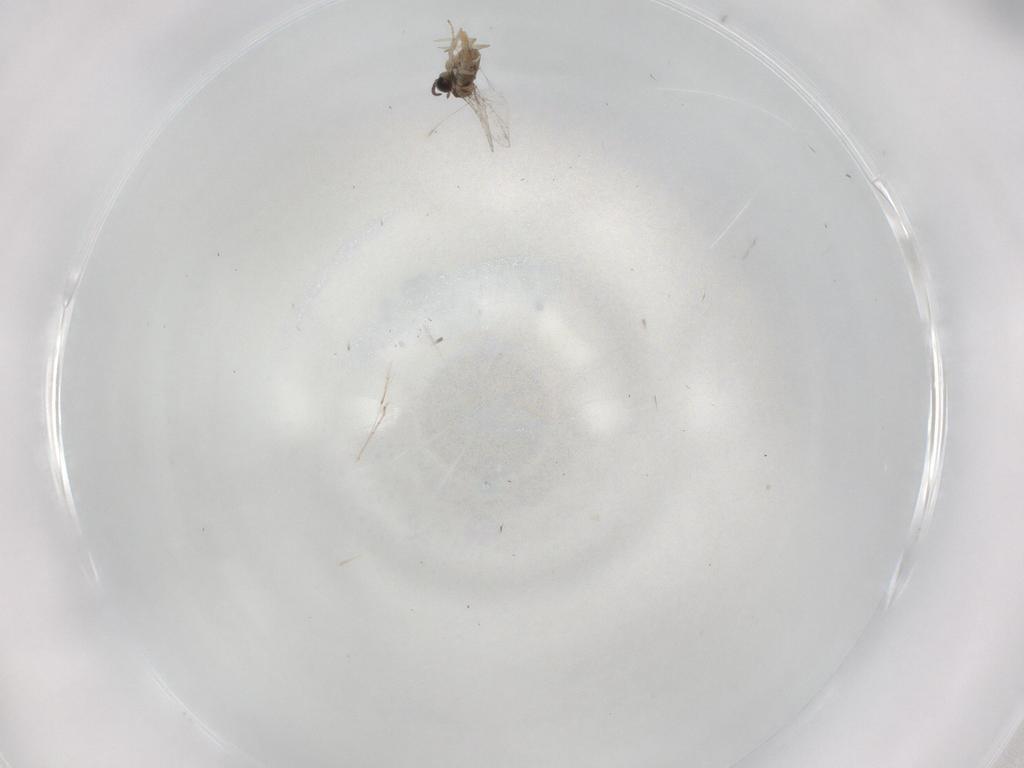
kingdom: Animalia
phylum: Arthropoda
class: Insecta
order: Diptera
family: Cecidomyiidae
